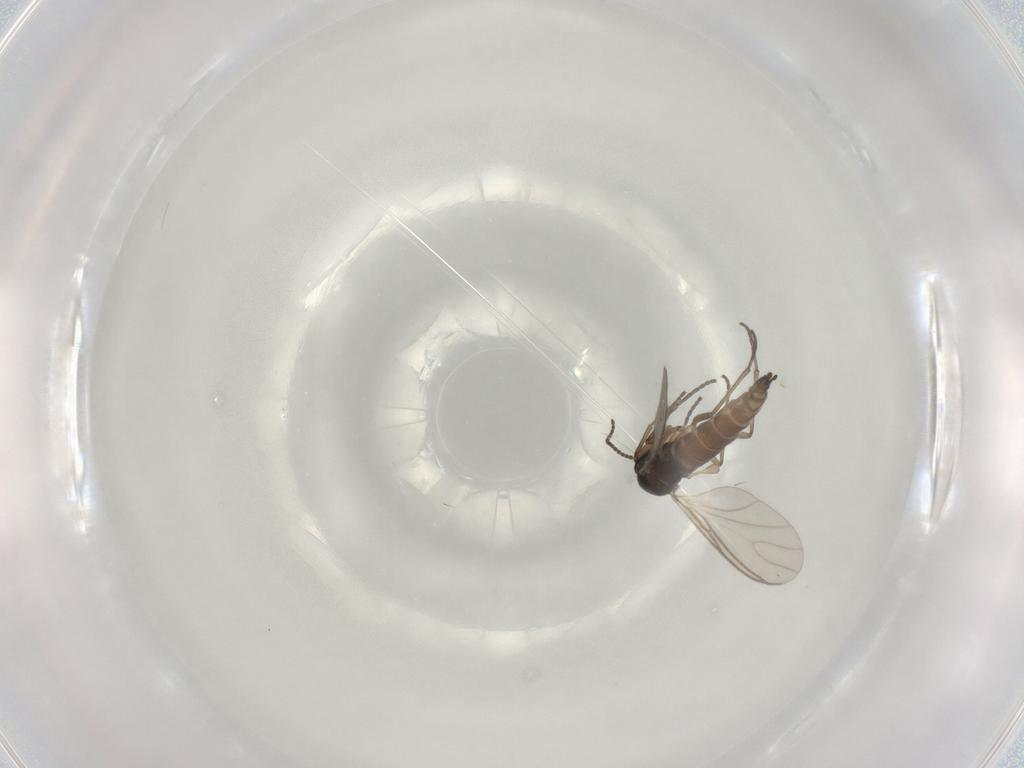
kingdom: Animalia
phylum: Arthropoda
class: Insecta
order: Diptera
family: Sciaridae
